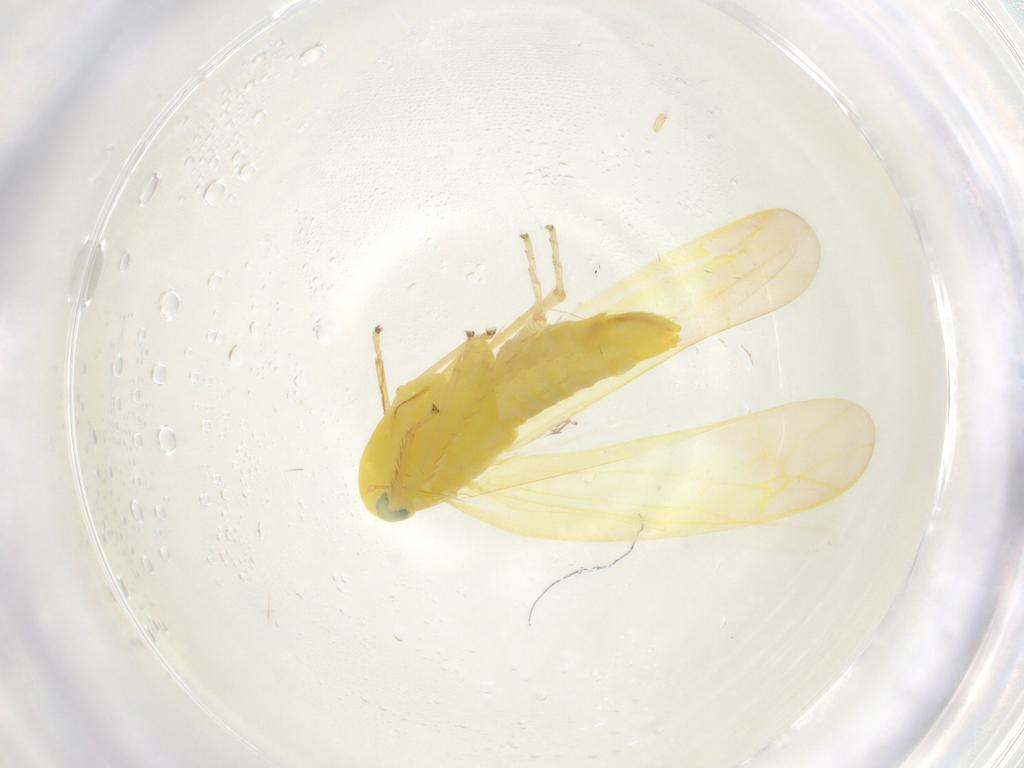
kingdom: Animalia
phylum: Arthropoda
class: Insecta
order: Hemiptera
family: Cicadellidae
